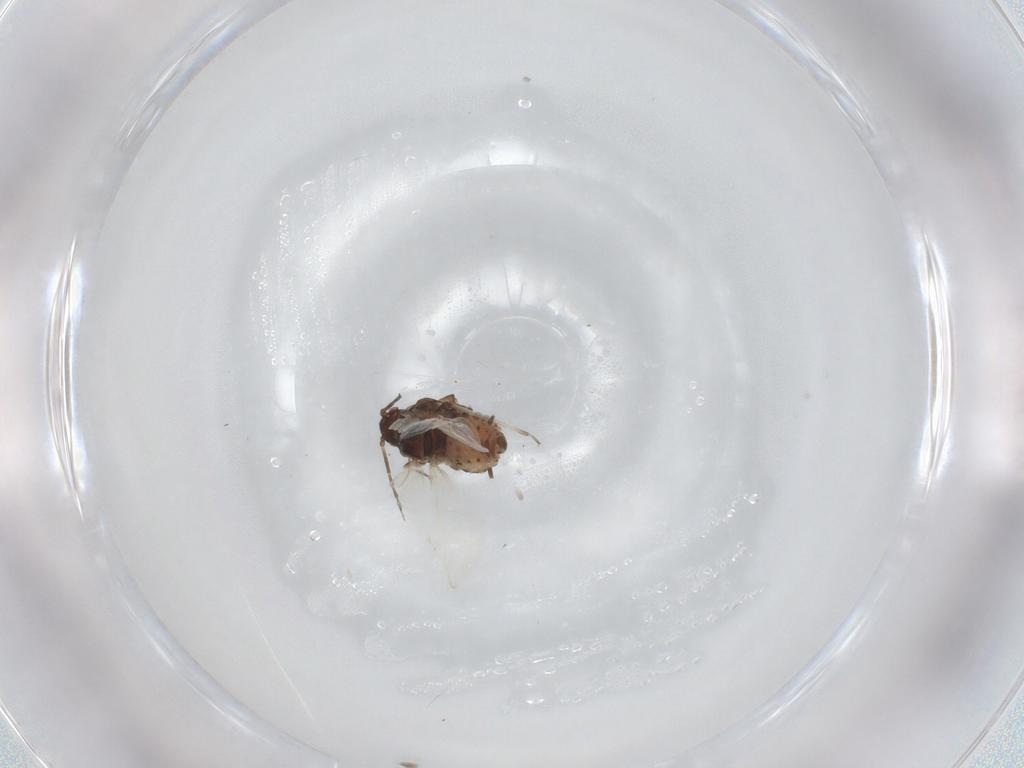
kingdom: Animalia
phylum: Arthropoda
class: Insecta
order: Hemiptera
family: Aphididae
